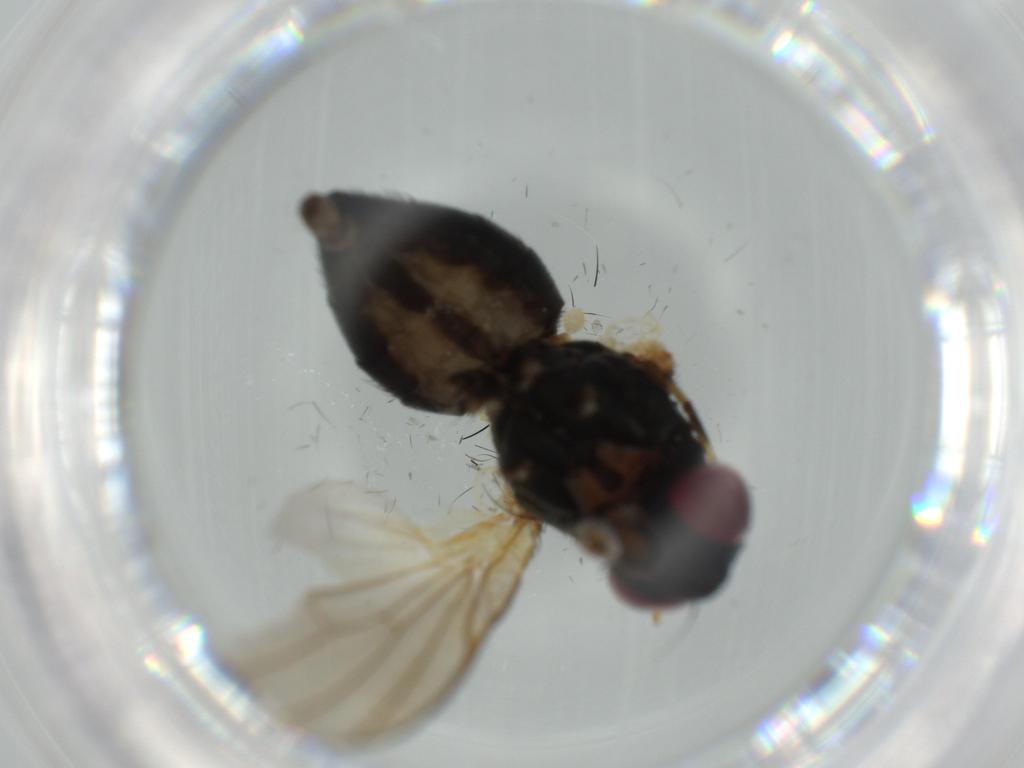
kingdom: Animalia
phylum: Arthropoda
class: Insecta
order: Diptera
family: Fannia
